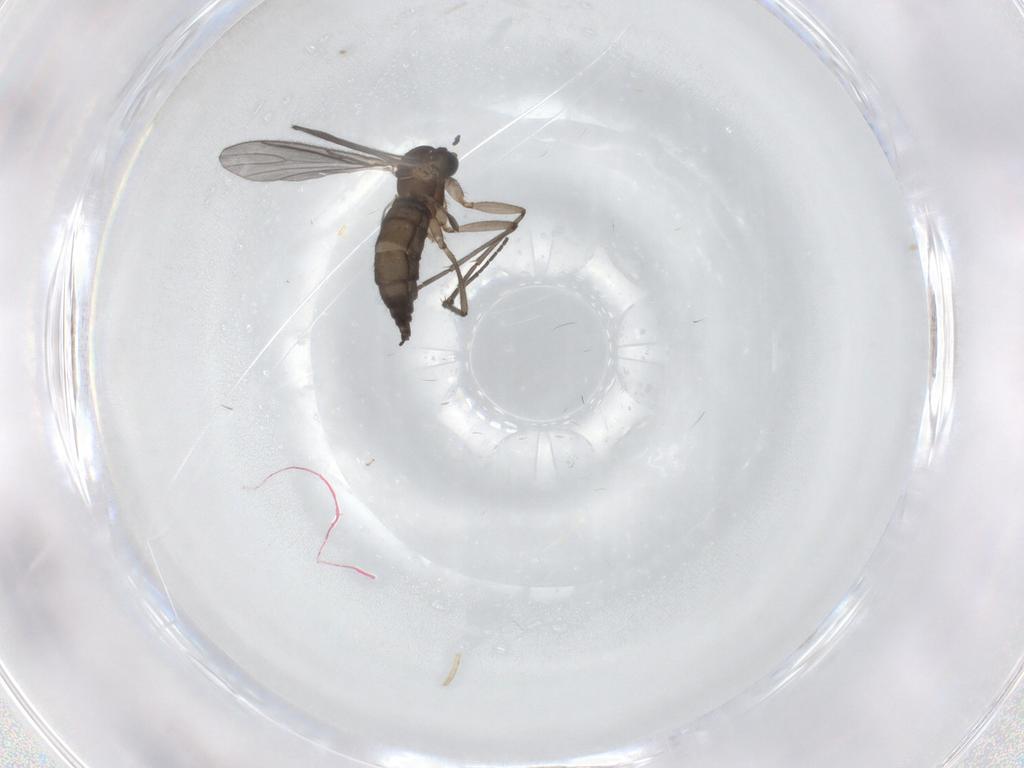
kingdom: Animalia
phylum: Arthropoda
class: Insecta
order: Diptera
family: Sciaridae
